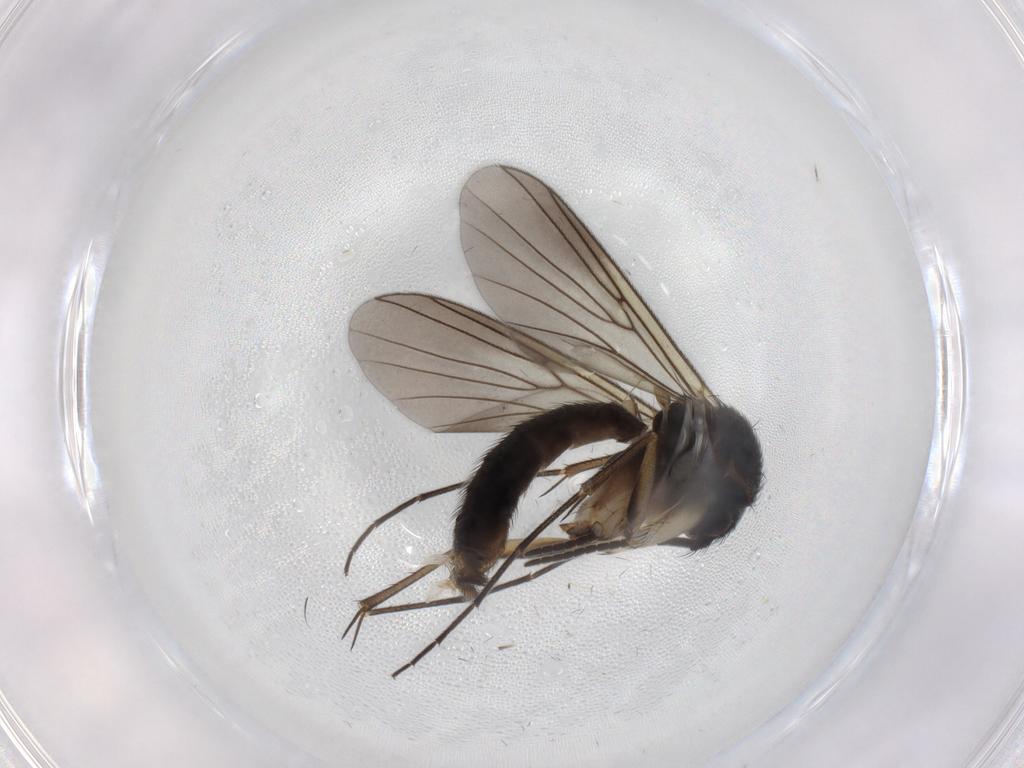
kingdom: Animalia
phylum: Arthropoda
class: Insecta
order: Diptera
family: Mycetophilidae
